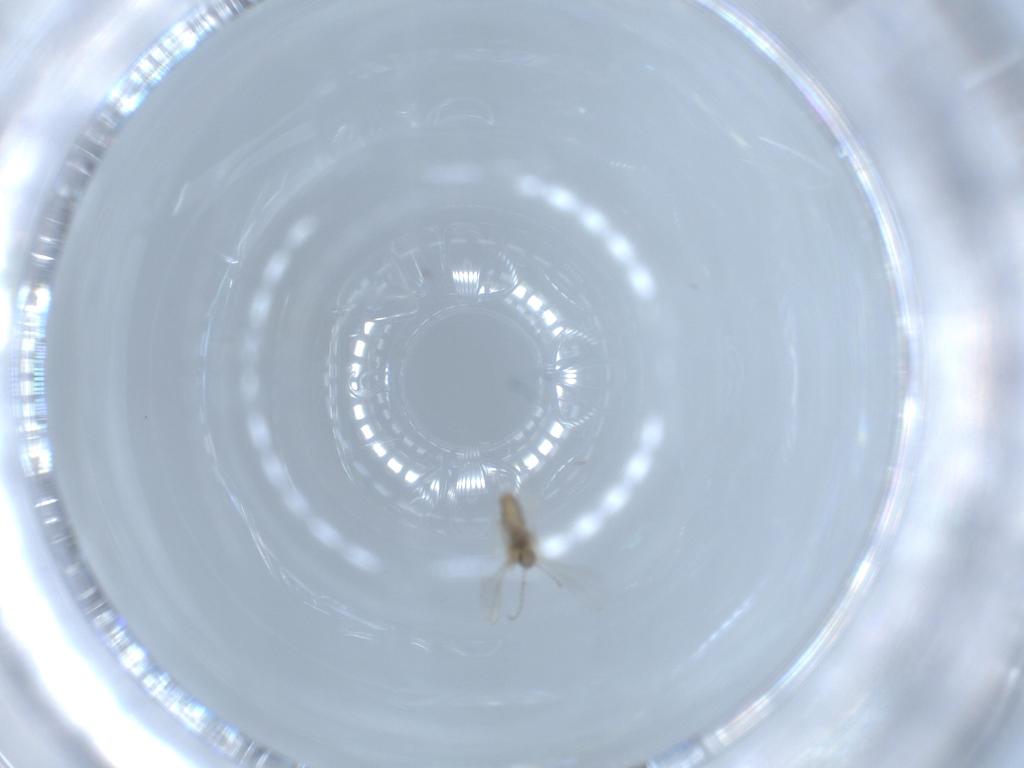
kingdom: Animalia
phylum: Arthropoda
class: Insecta
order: Diptera
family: Cecidomyiidae
